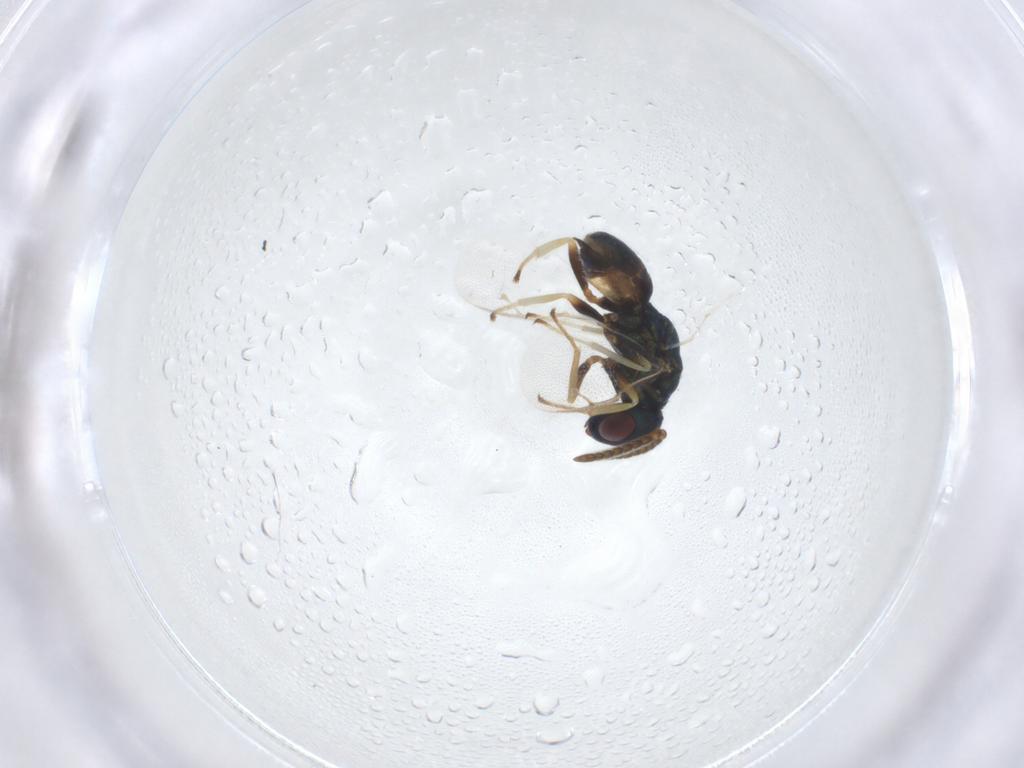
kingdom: Animalia
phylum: Arthropoda
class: Insecta
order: Hymenoptera
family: Pteromalidae
